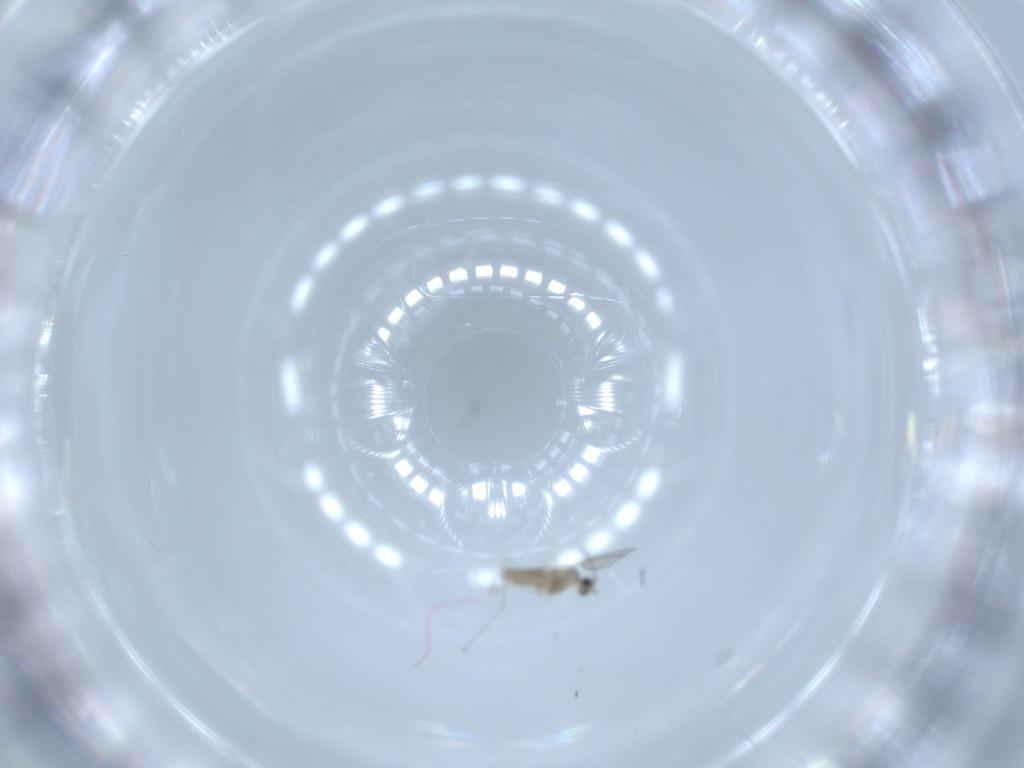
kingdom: Animalia
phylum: Arthropoda
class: Insecta
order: Diptera
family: Cecidomyiidae
